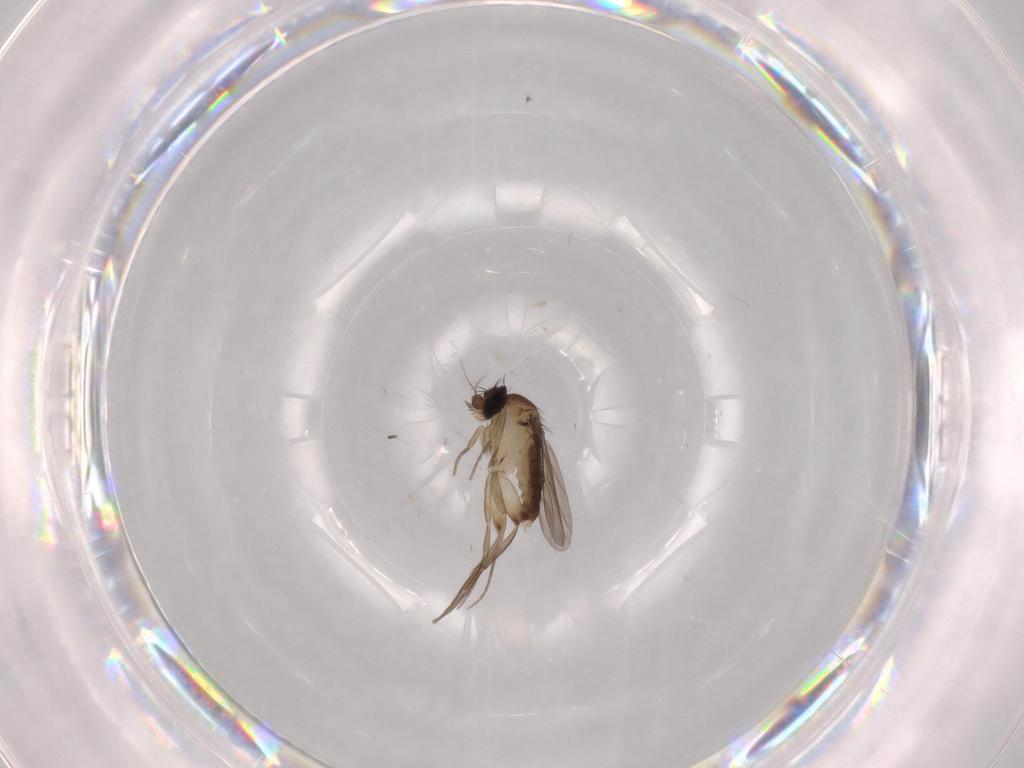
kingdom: Animalia
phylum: Arthropoda
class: Insecta
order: Diptera
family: Phoridae
